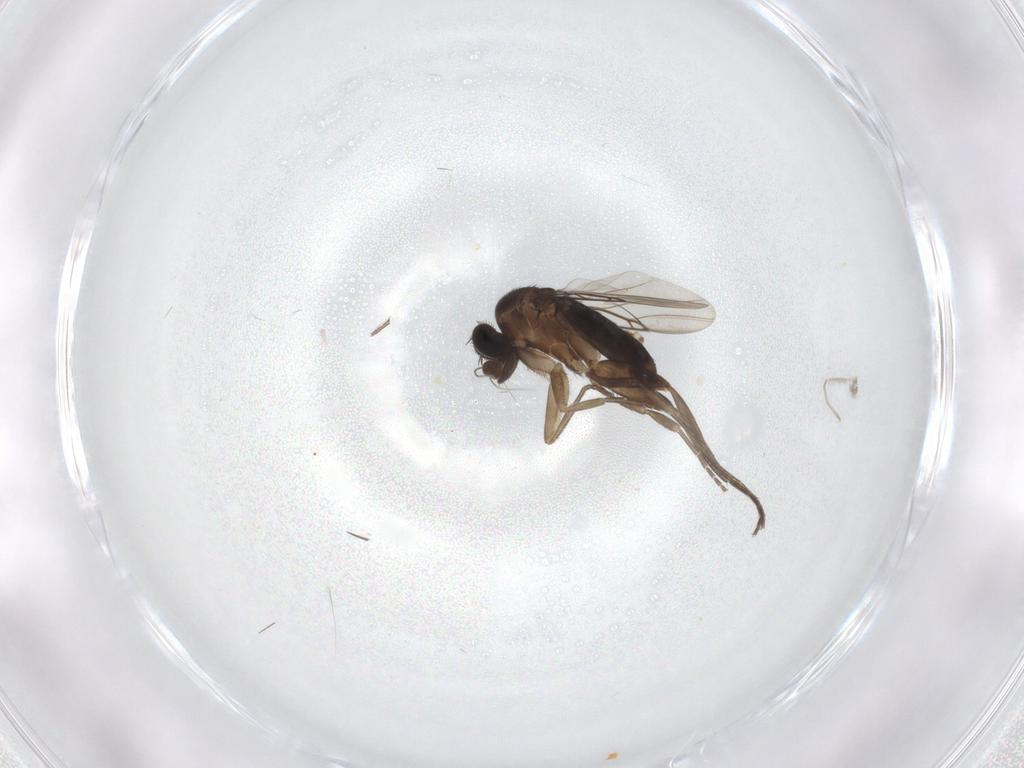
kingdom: Animalia
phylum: Arthropoda
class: Insecta
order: Diptera
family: Phoridae
